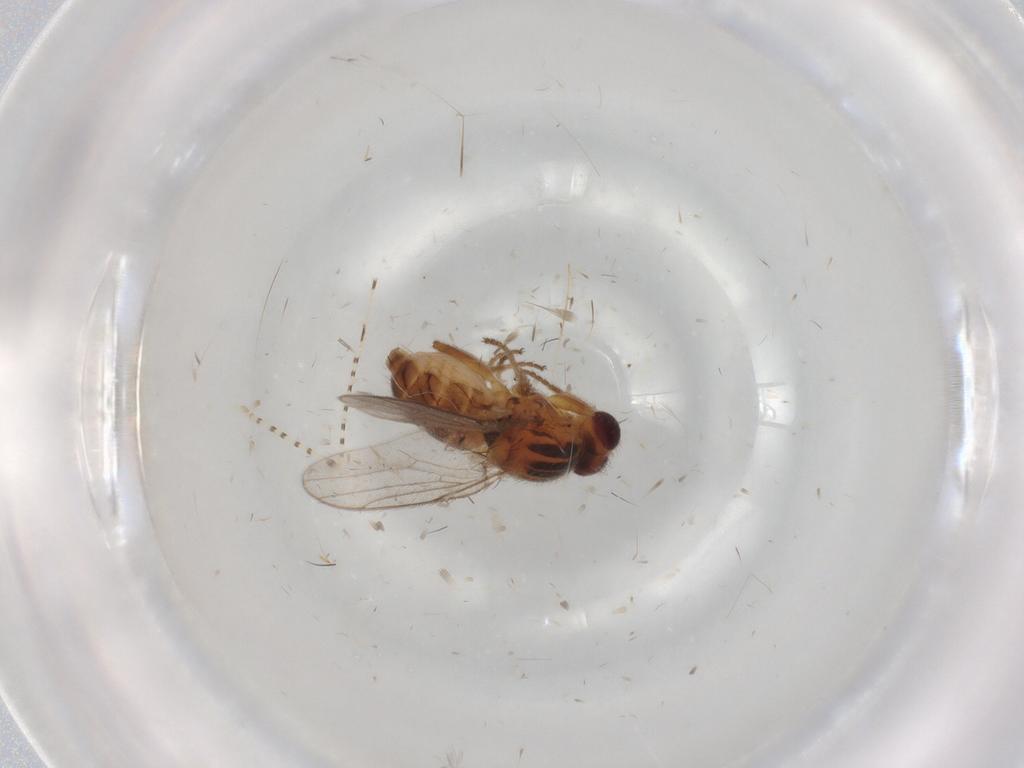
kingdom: Animalia
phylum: Arthropoda
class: Insecta
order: Diptera
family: Chloropidae
